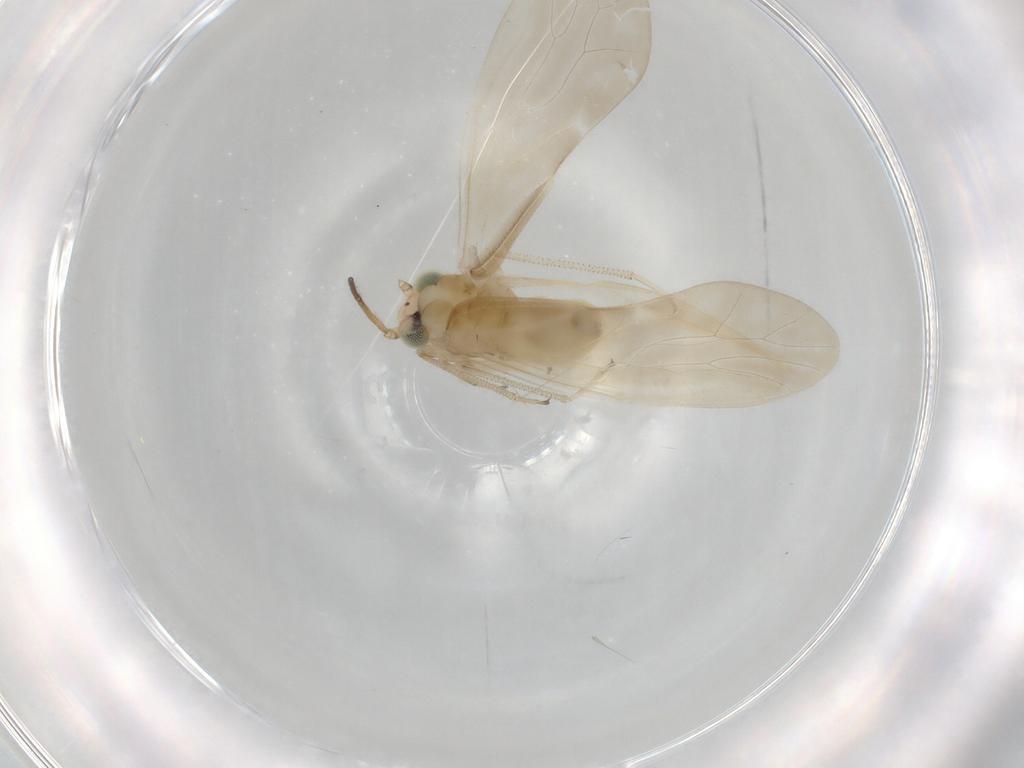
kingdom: Animalia
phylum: Arthropoda
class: Insecta
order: Psocodea
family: Caeciliusidae
